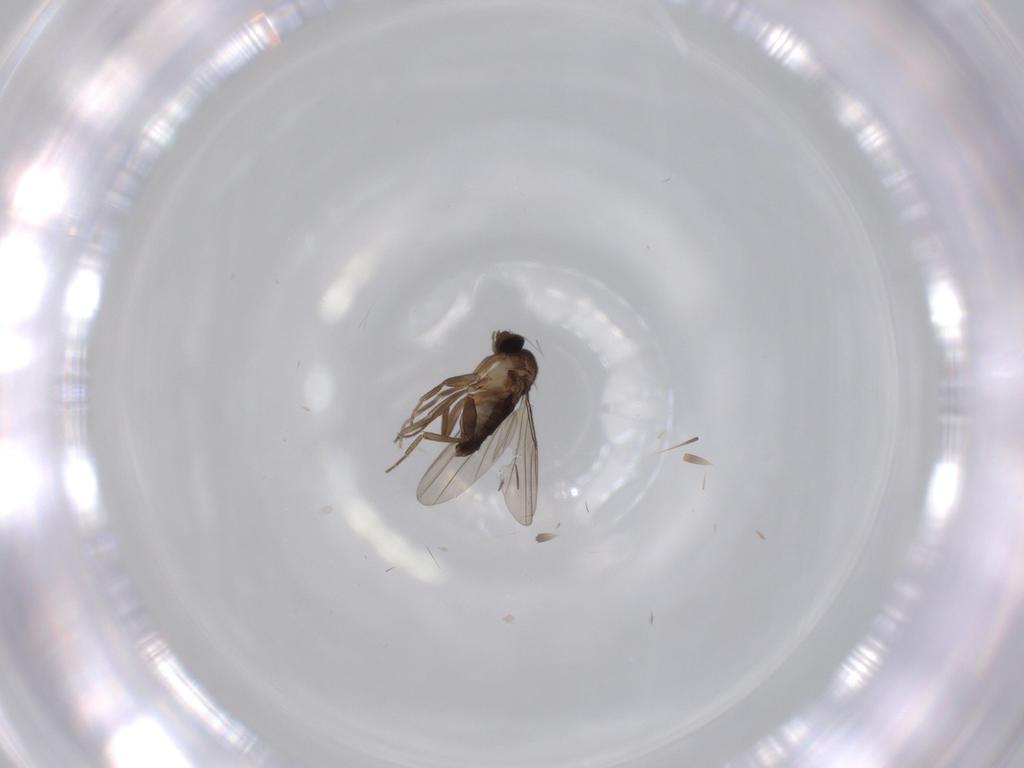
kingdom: Animalia
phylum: Arthropoda
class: Insecta
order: Diptera
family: Phoridae
